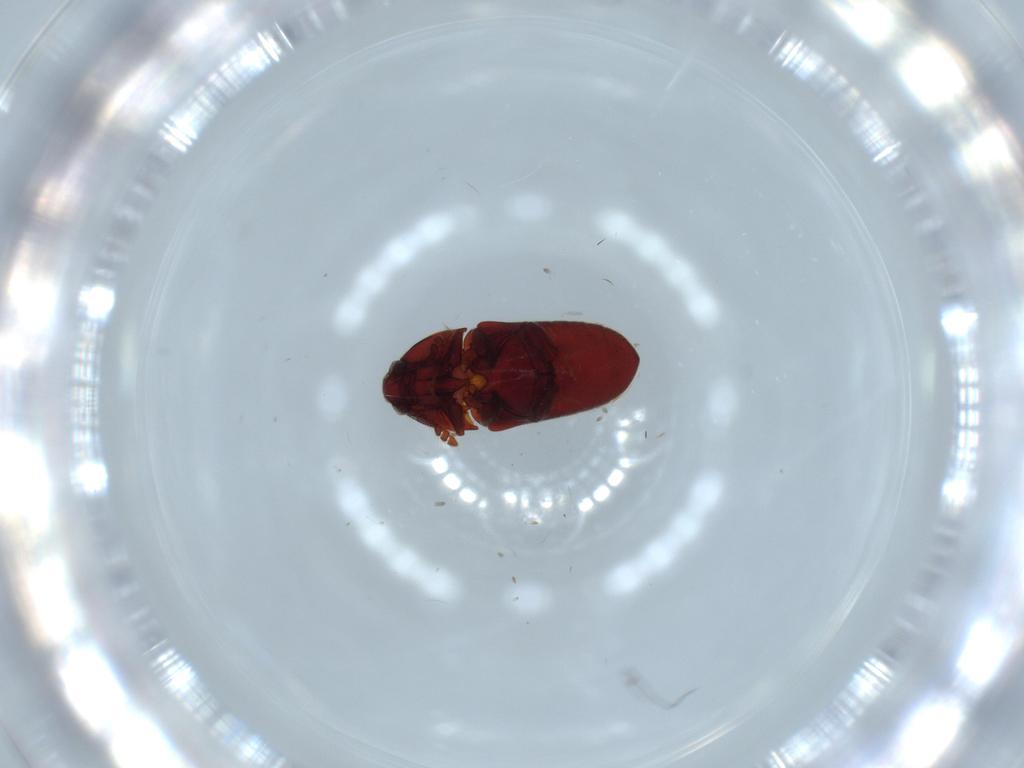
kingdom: Animalia
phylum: Arthropoda
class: Insecta
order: Coleoptera
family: Throscidae
